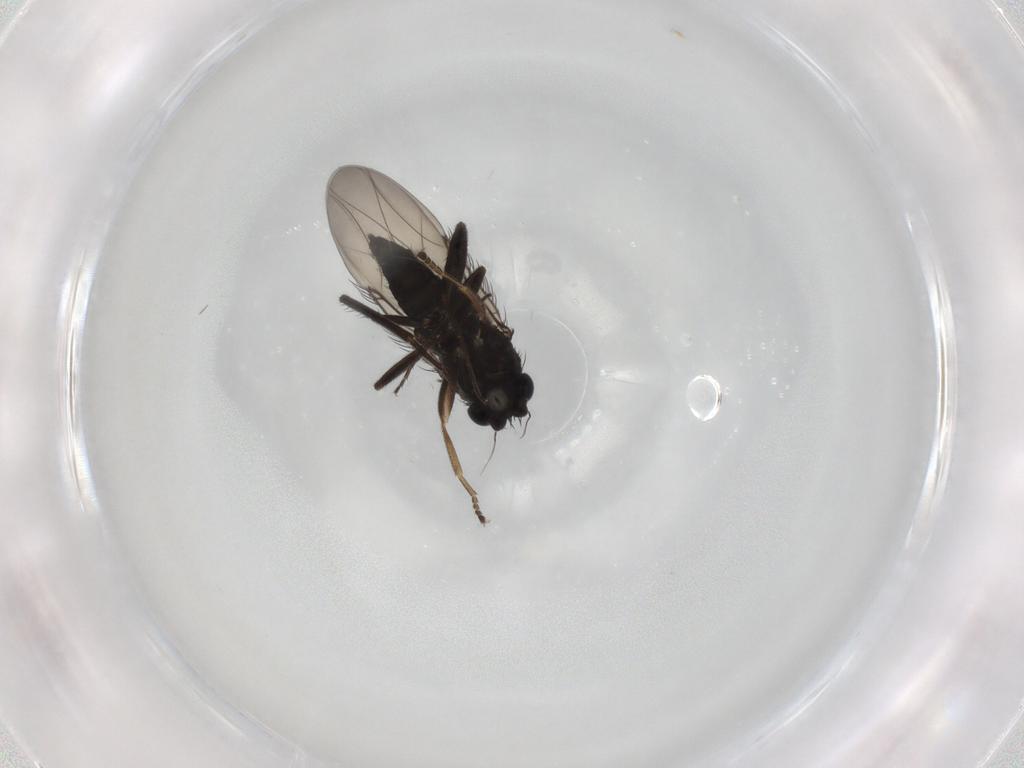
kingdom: Animalia
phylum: Arthropoda
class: Insecta
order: Diptera
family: Phoridae
